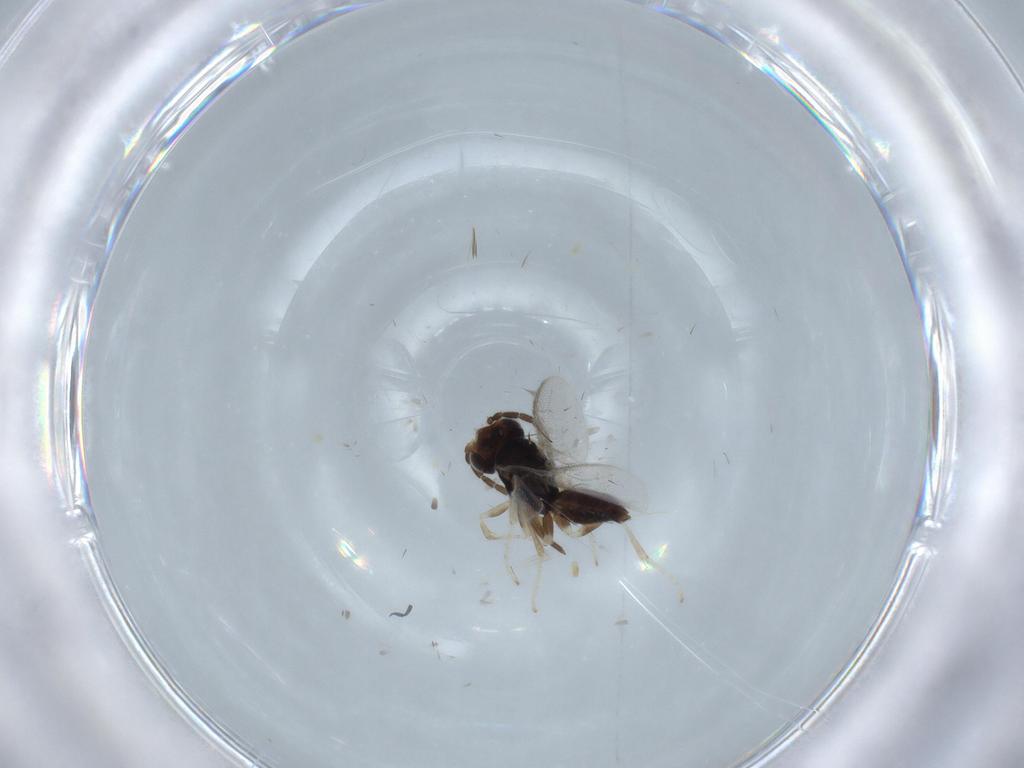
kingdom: Animalia
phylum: Arthropoda
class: Insecta
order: Hymenoptera
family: Dryinidae
